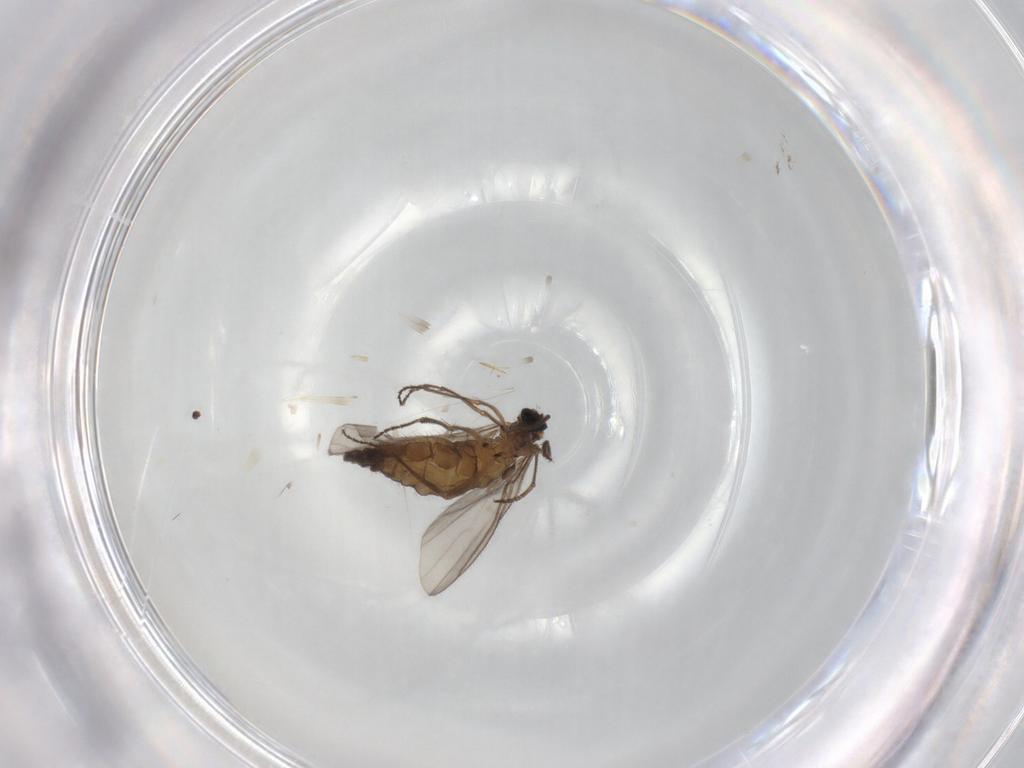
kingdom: Animalia
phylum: Arthropoda
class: Insecta
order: Diptera
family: Sciaridae
